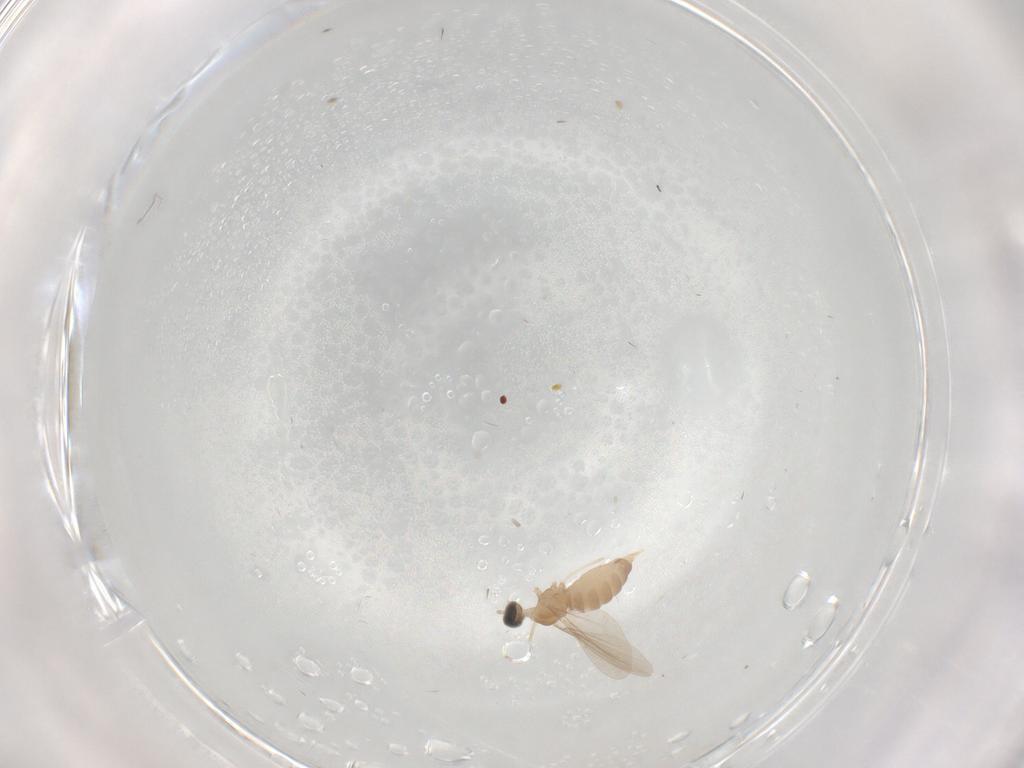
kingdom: Animalia
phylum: Arthropoda
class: Insecta
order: Diptera
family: Cecidomyiidae
